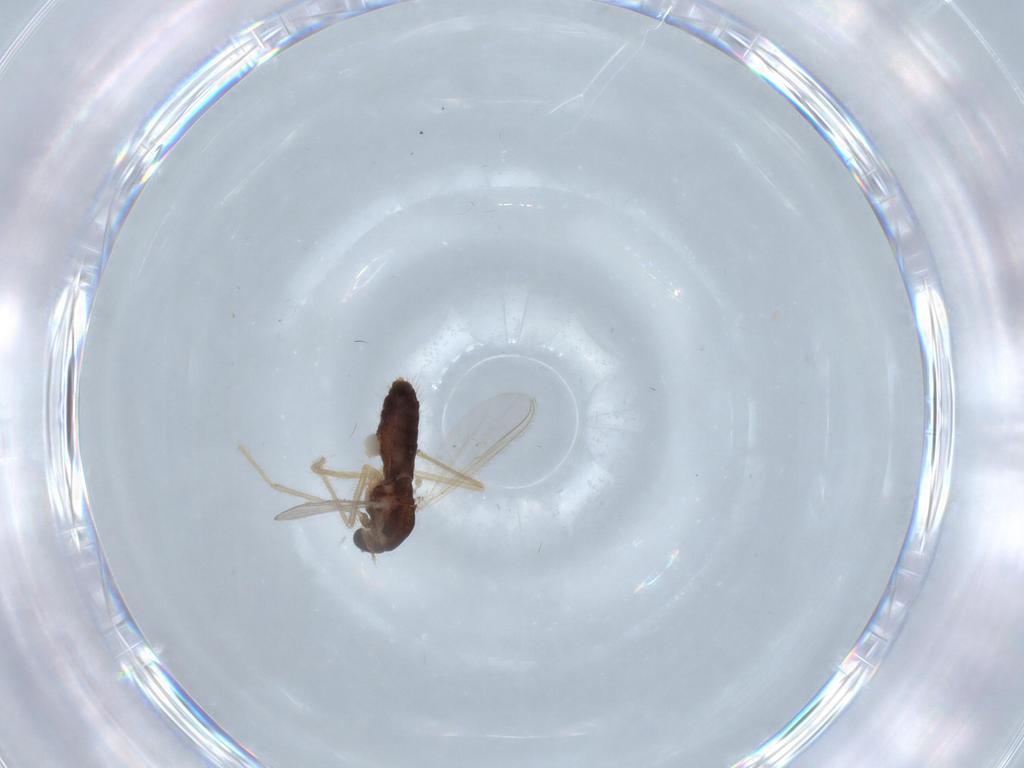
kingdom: Animalia
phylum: Arthropoda
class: Insecta
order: Diptera
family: Chironomidae
